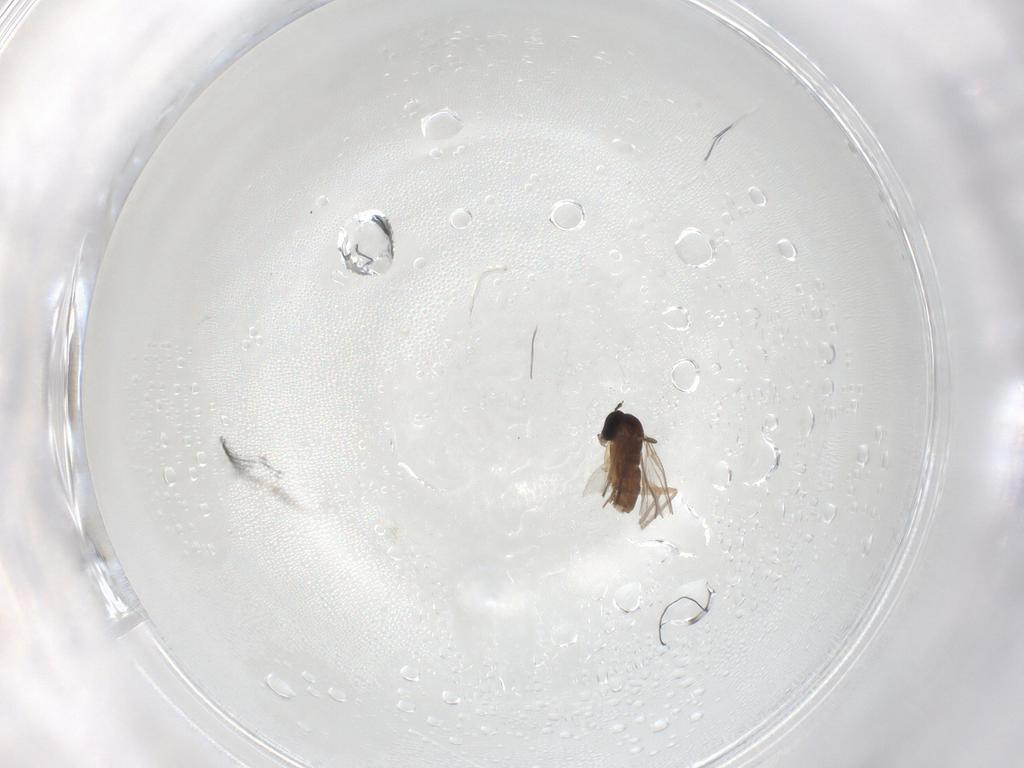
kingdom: Animalia
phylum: Arthropoda
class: Insecta
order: Diptera
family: Sciaridae
